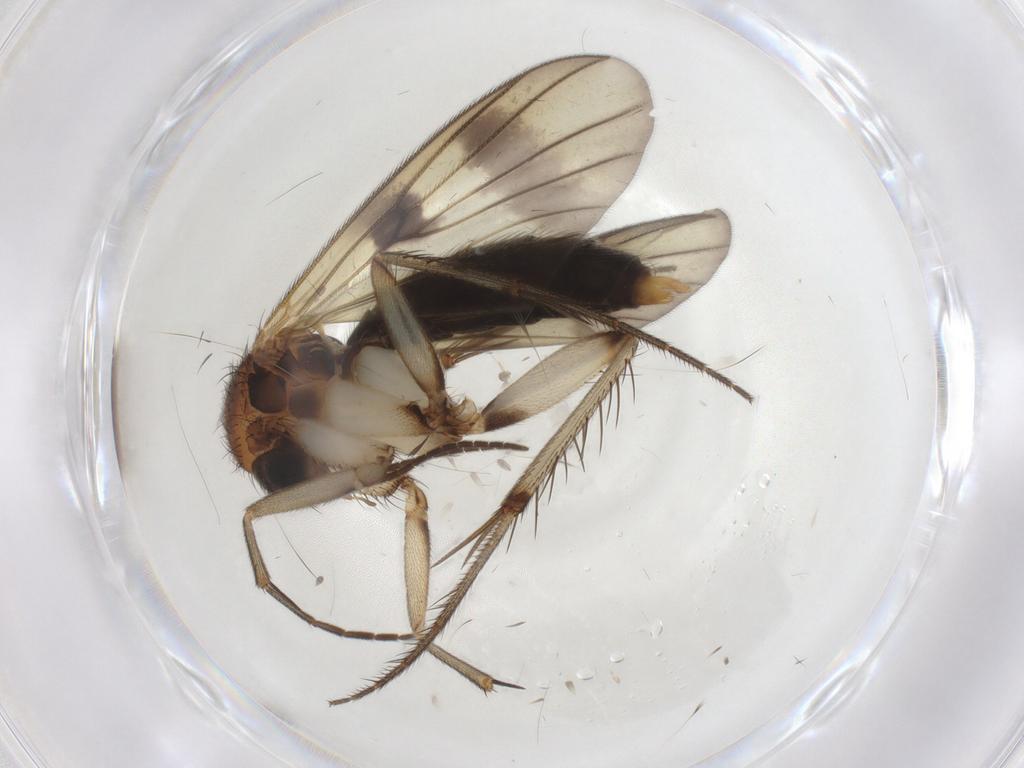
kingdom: Animalia
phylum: Arthropoda
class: Insecta
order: Diptera
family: Mycetophilidae
